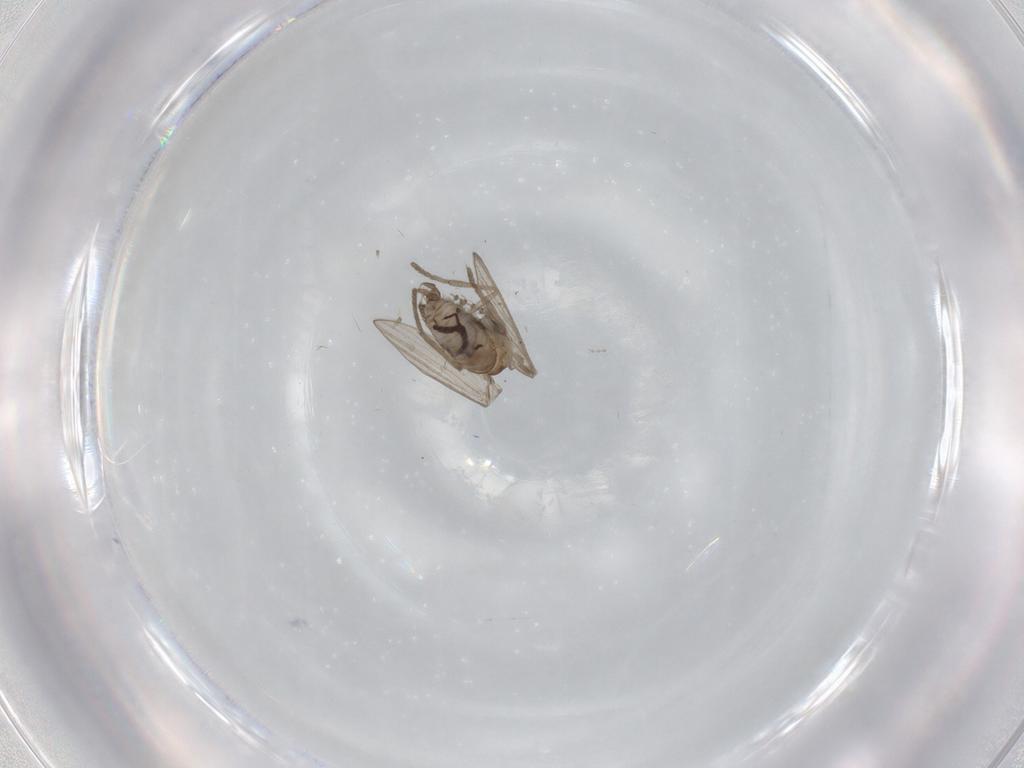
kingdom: Animalia
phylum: Arthropoda
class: Insecta
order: Diptera
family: Psychodidae
